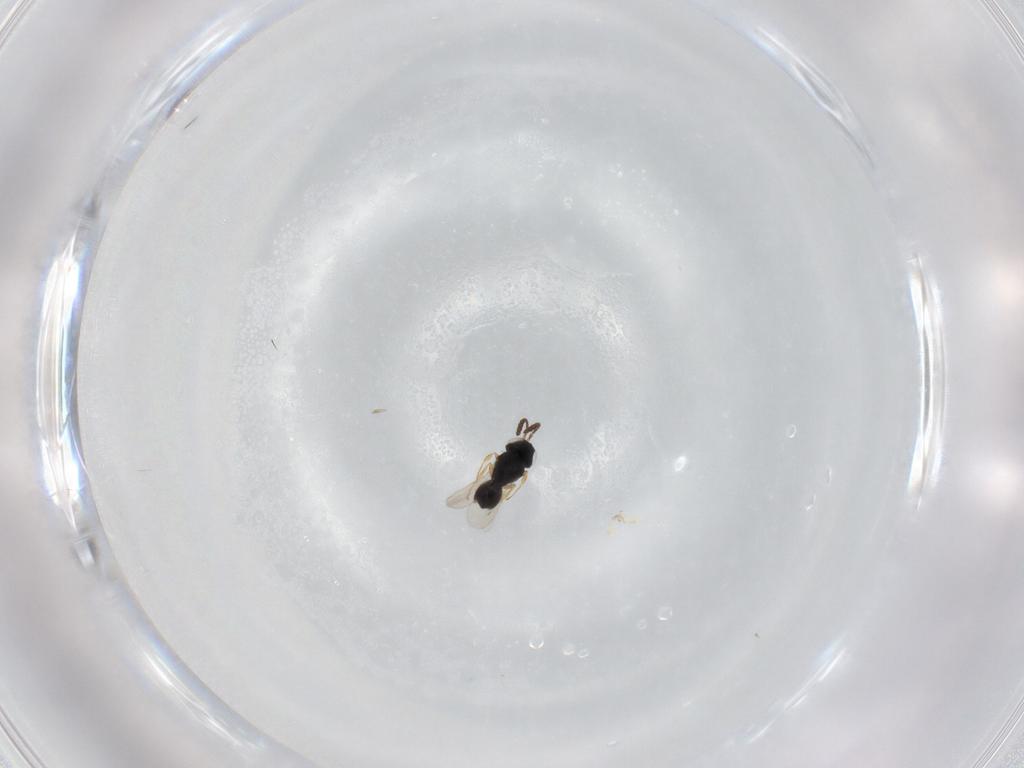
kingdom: Animalia
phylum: Arthropoda
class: Insecta
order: Hymenoptera
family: Scelionidae
